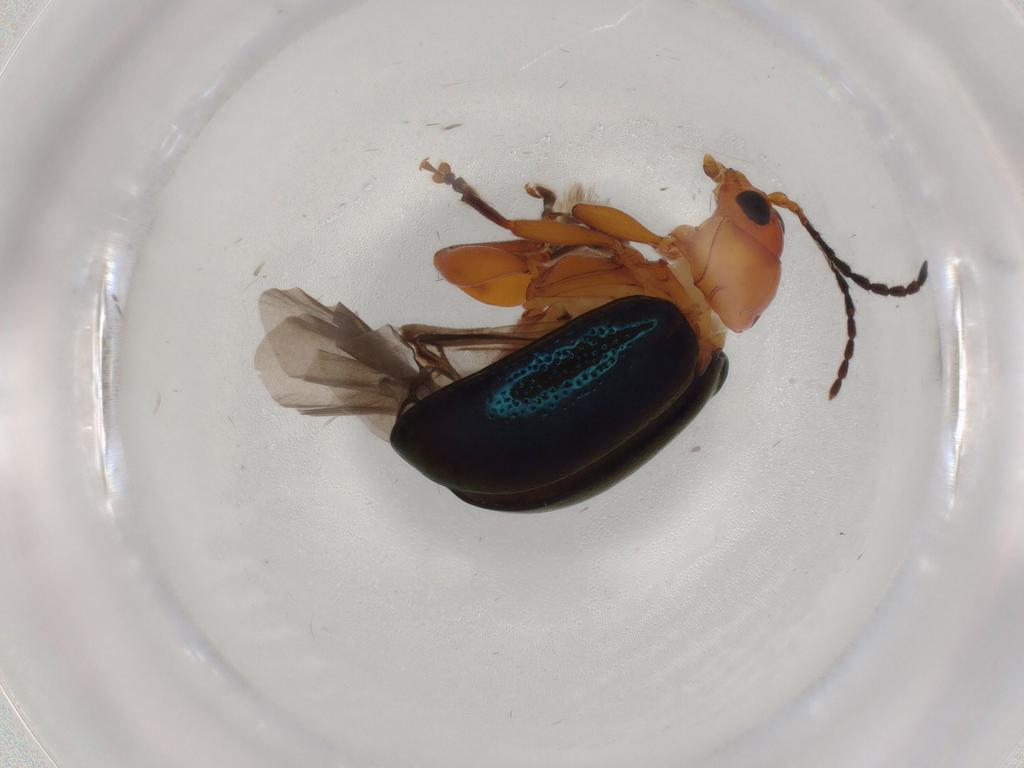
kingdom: Animalia
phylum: Arthropoda
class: Insecta
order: Coleoptera
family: Chrysomelidae
